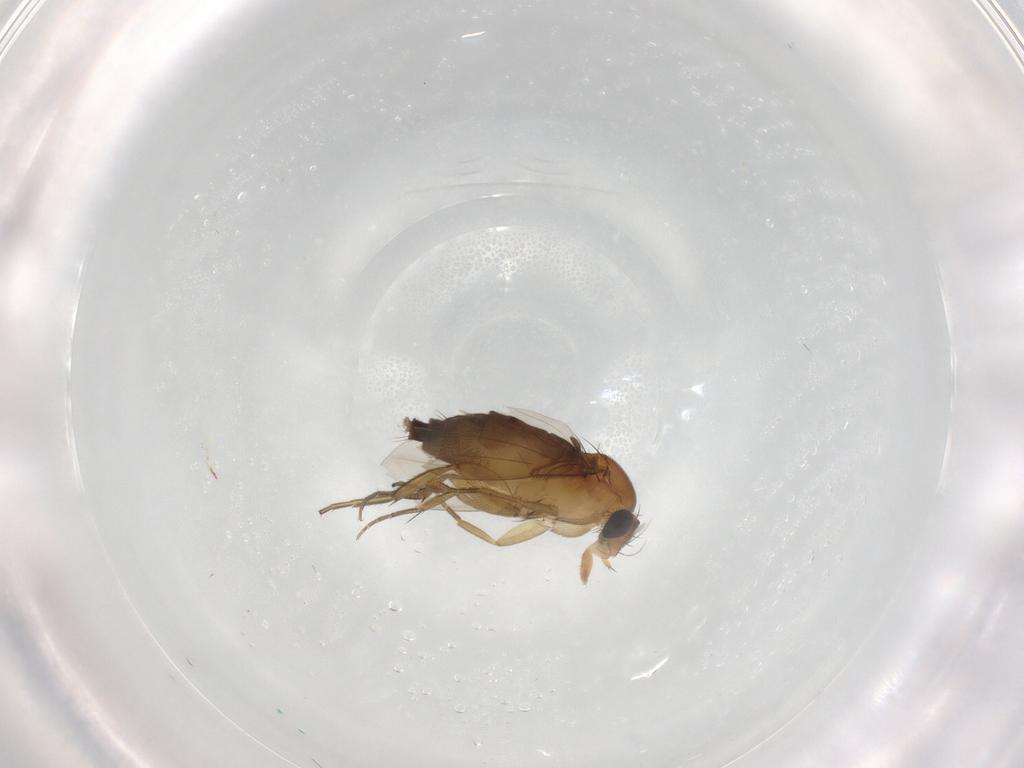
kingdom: Animalia
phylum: Arthropoda
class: Insecta
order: Diptera
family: Phoridae
